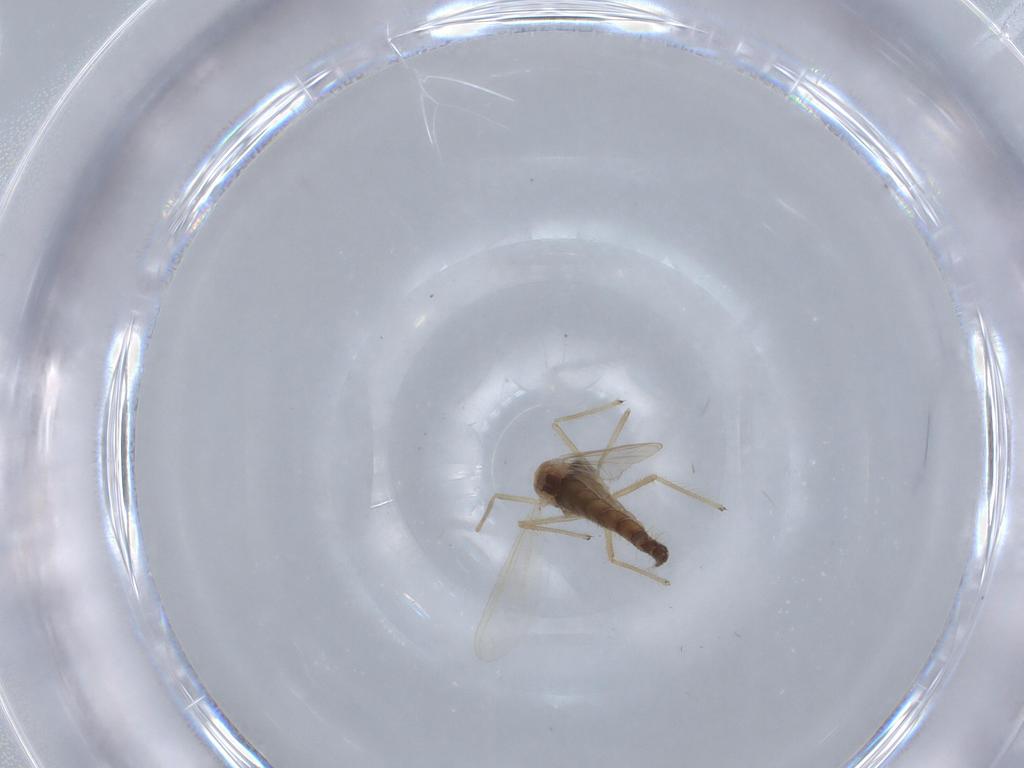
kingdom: Animalia
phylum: Arthropoda
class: Insecta
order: Diptera
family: Chironomidae
